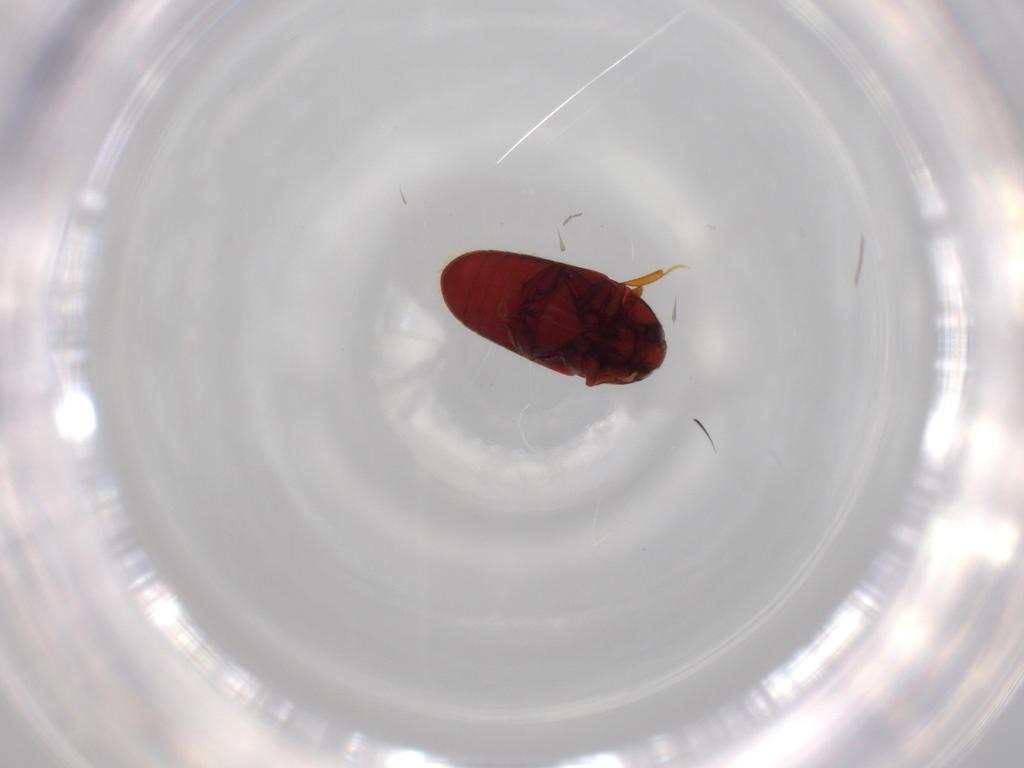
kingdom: Animalia
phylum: Arthropoda
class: Insecta
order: Coleoptera
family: Throscidae
